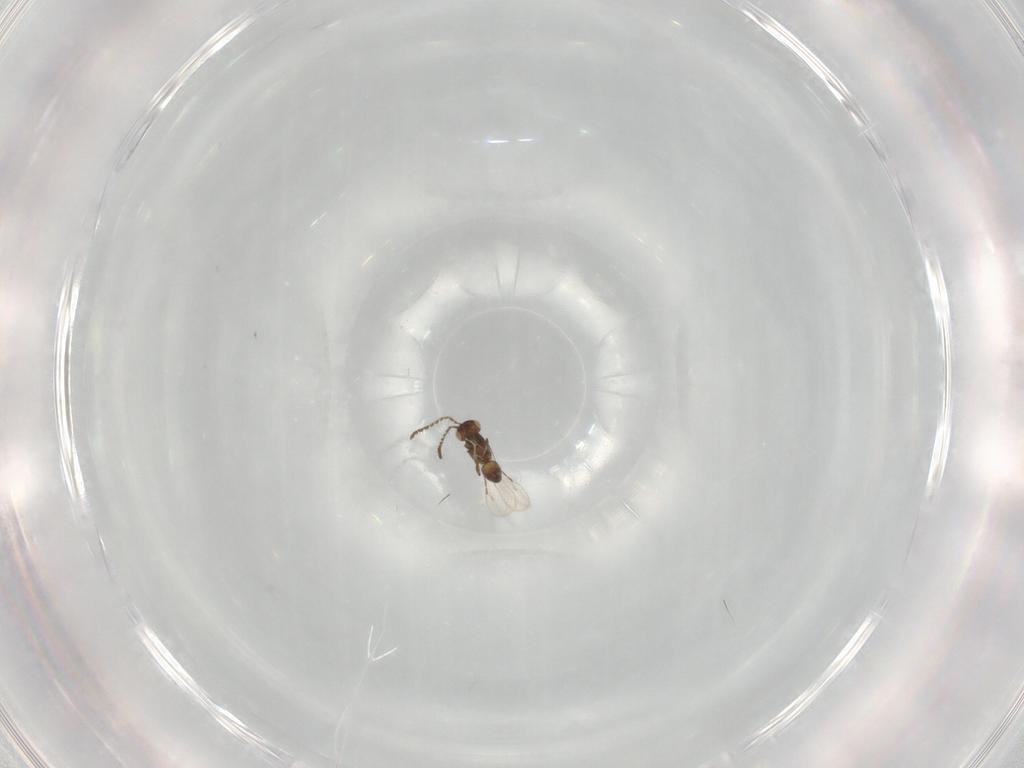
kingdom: Animalia
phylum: Arthropoda
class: Insecta
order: Hymenoptera
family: Vespidae
